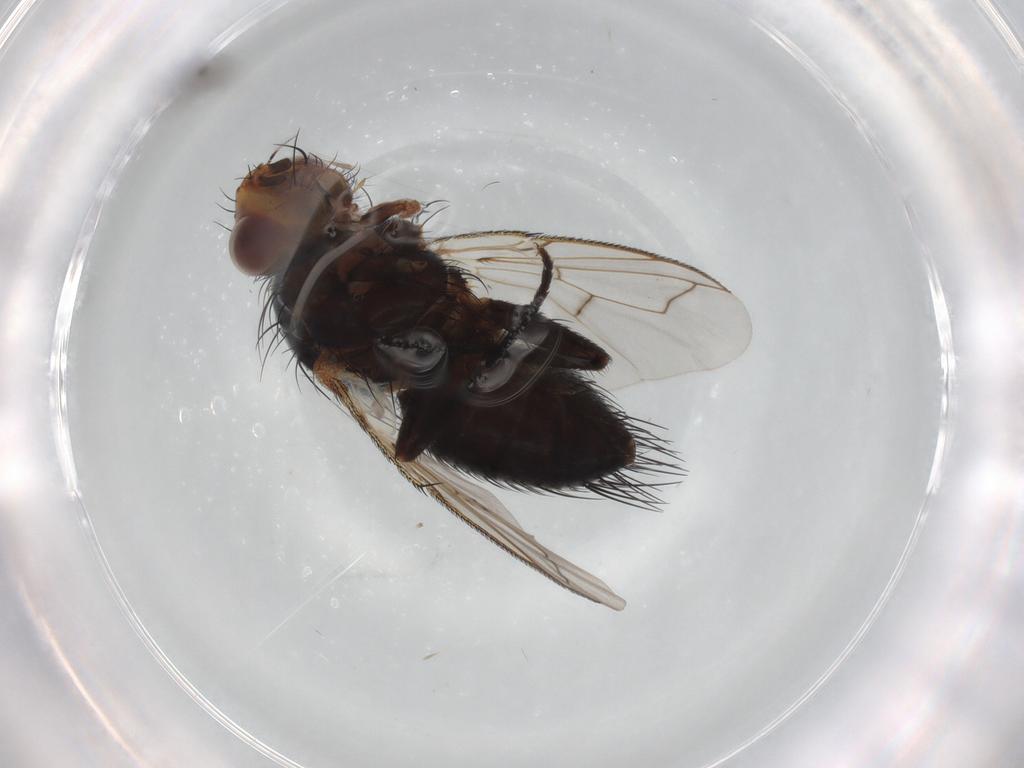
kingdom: Animalia
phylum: Arthropoda
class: Insecta
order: Diptera
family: Tachinidae
